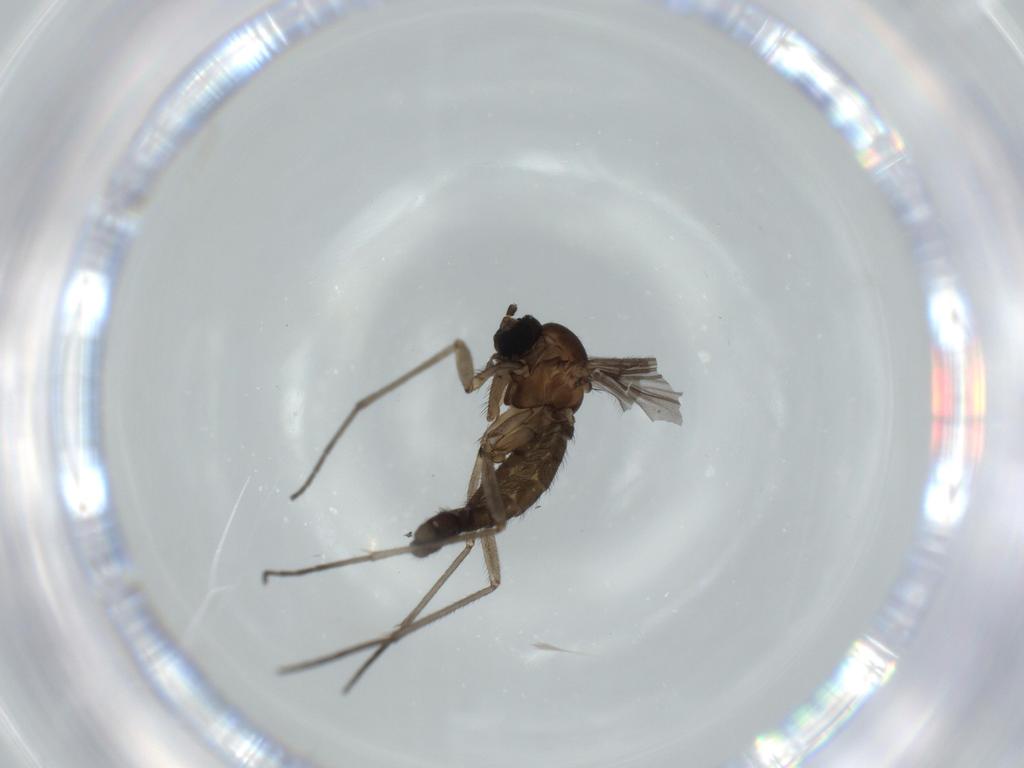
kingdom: Animalia
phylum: Arthropoda
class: Insecta
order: Diptera
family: Sciaridae
